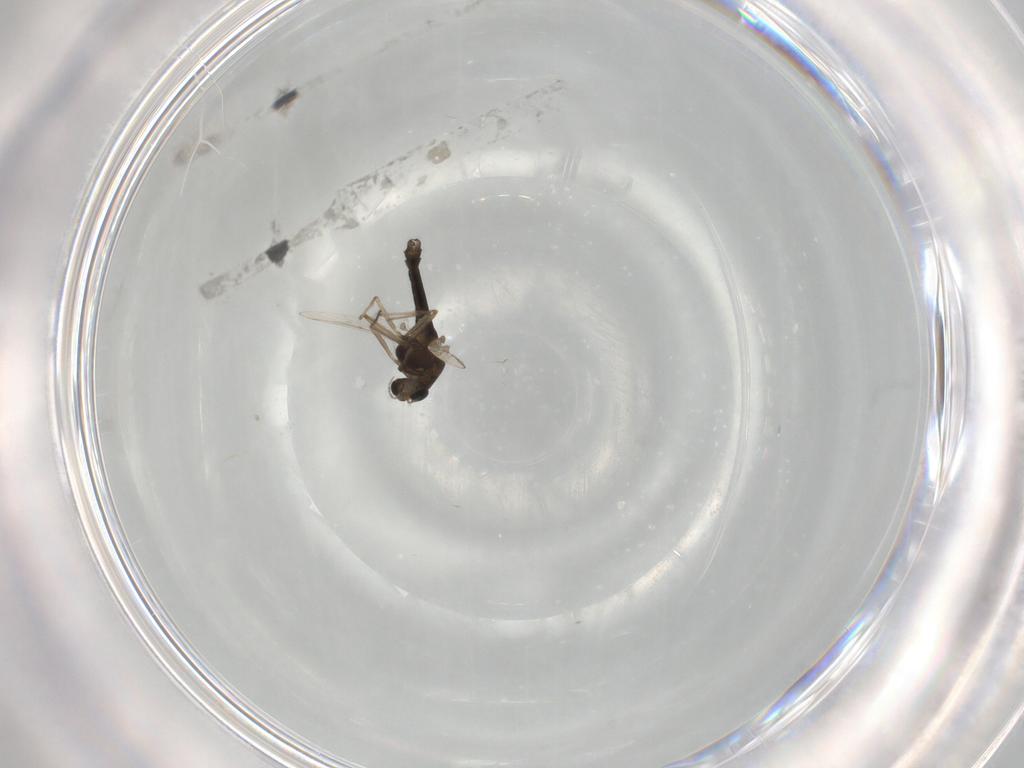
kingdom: Animalia
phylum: Arthropoda
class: Insecta
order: Diptera
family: Chironomidae
